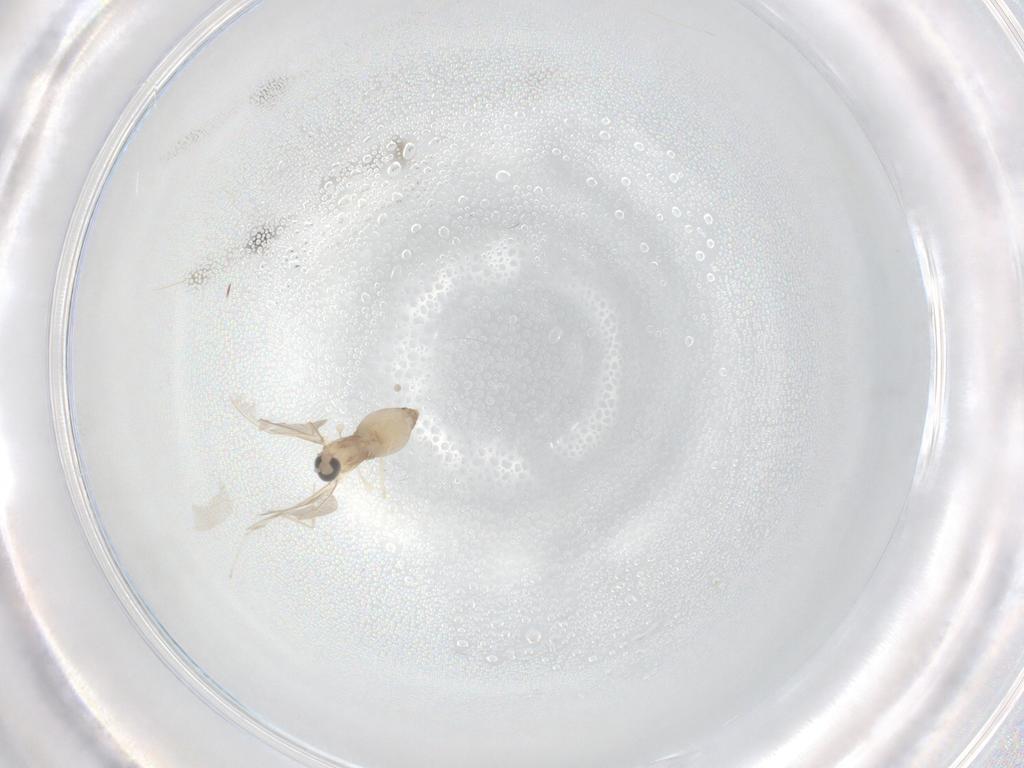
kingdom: Animalia
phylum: Arthropoda
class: Insecta
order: Diptera
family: Cecidomyiidae
